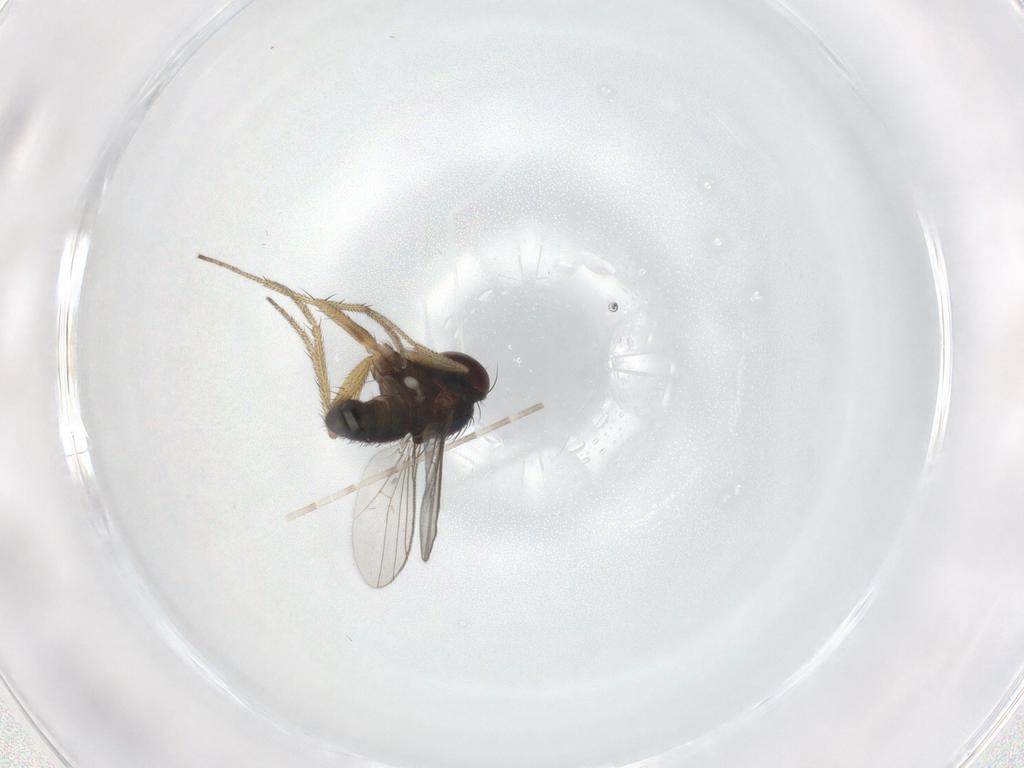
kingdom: Animalia
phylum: Arthropoda
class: Insecta
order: Diptera
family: Dolichopodidae
